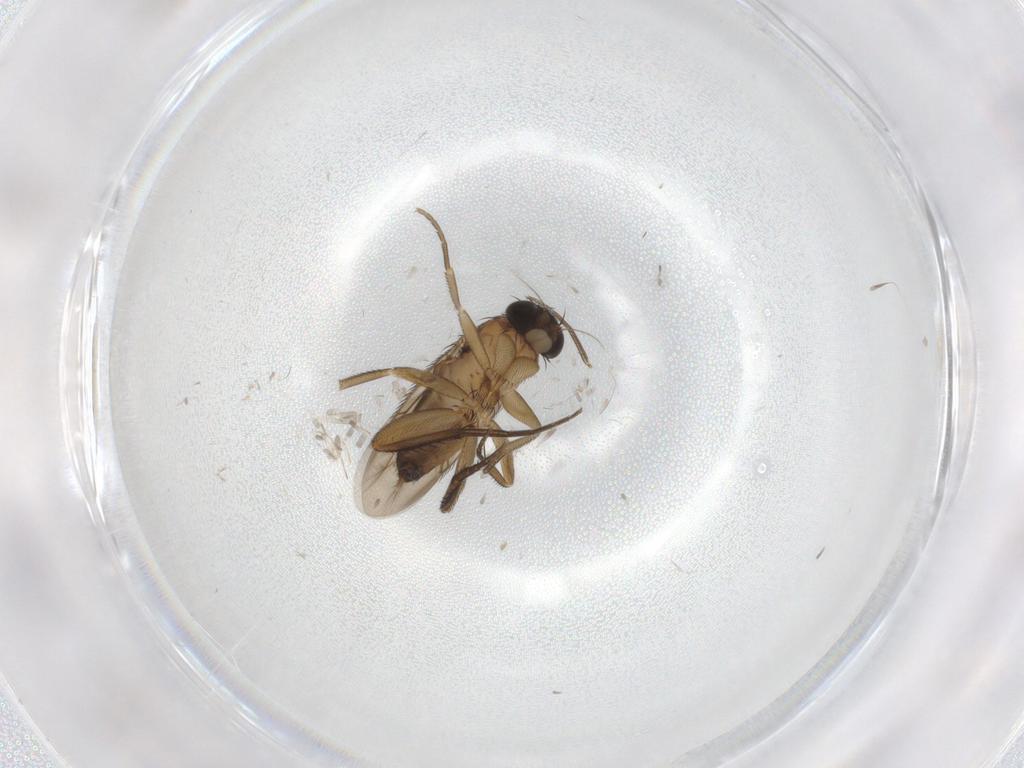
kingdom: Animalia
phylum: Arthropoda
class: Insecta
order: Diptera
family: Phoridae
